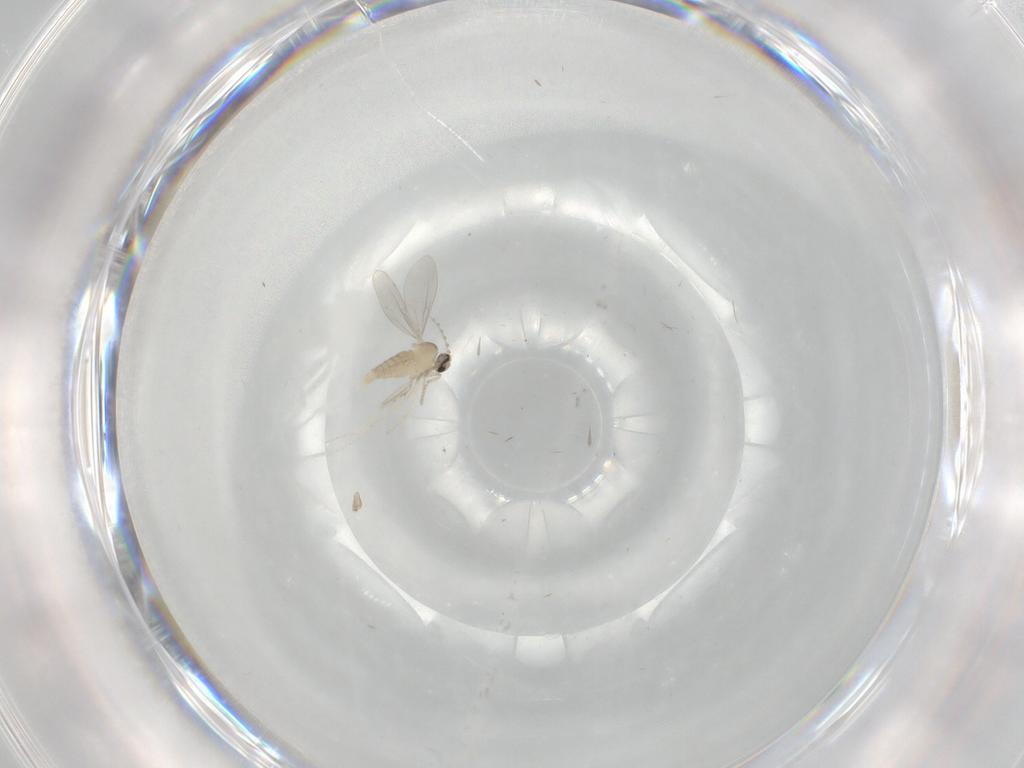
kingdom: Animalia
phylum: Arthropoda
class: Insecta
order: Diptera
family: Cecidomyiidae
